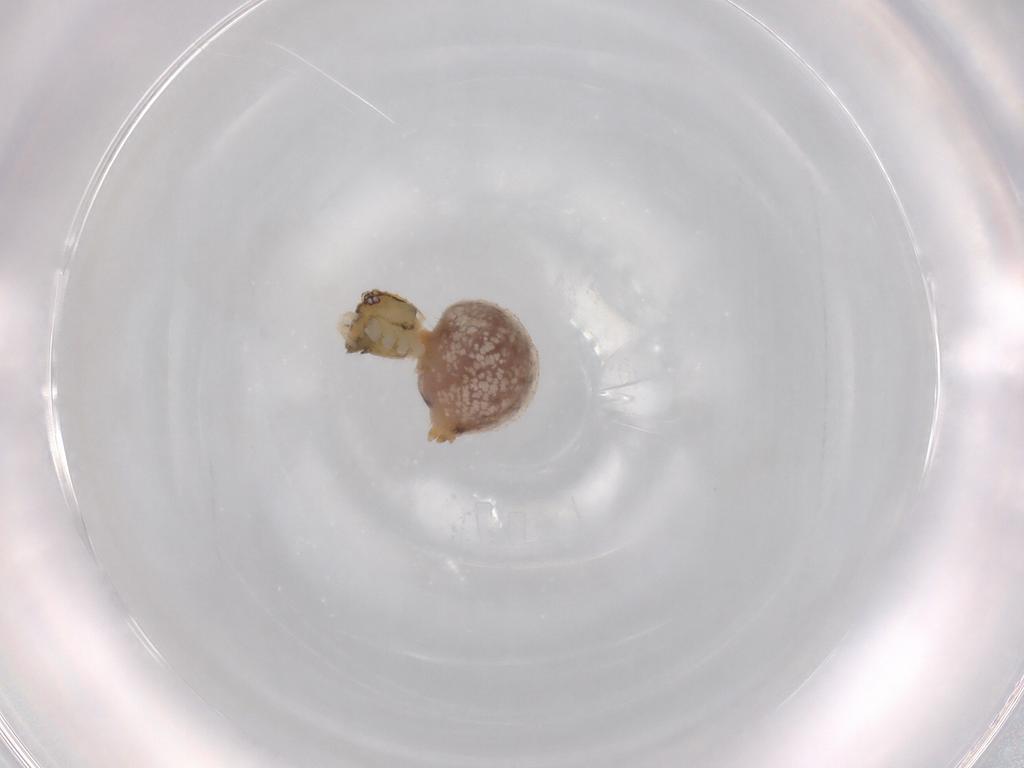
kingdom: Animalia
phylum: Arthropoda
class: Arachnida
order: Araneae
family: Theridiidae
